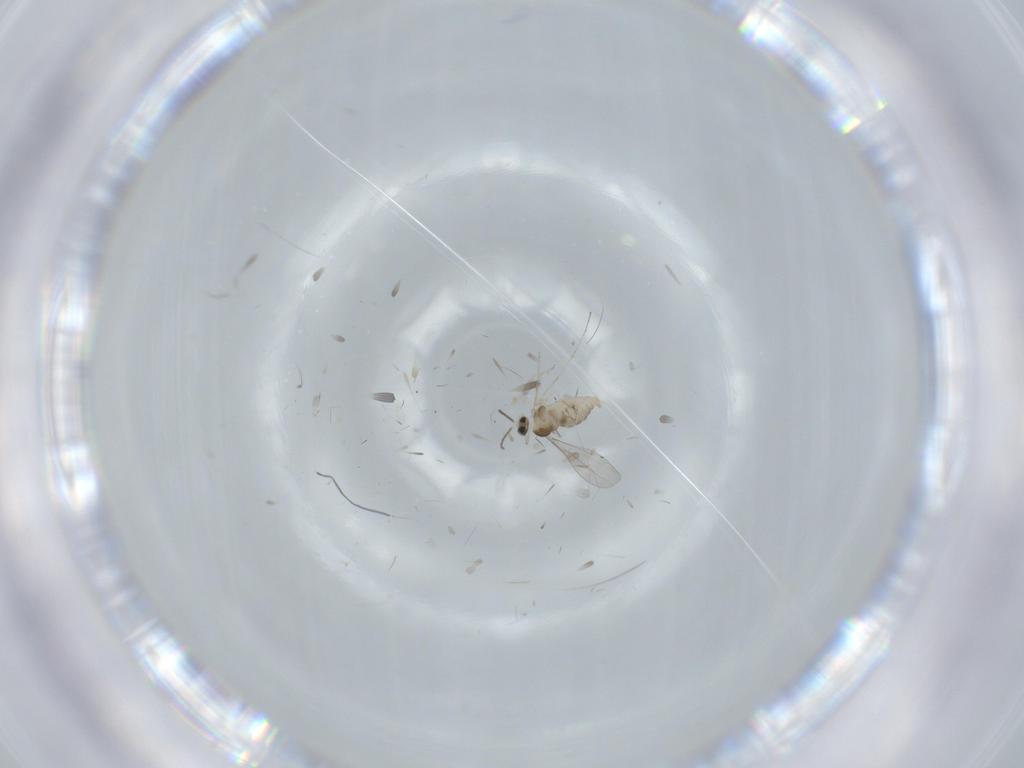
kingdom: Animalia
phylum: Arthropoda
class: Insecta
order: Diptera
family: Cecidomyiidae
